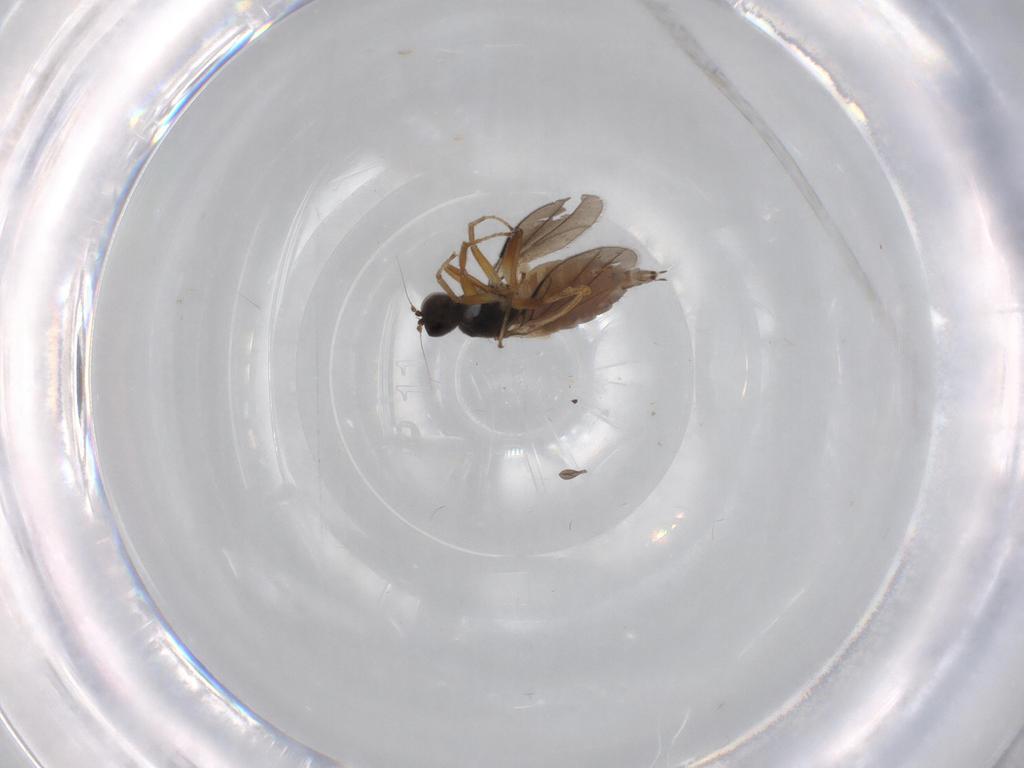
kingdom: Animalia
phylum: Arthropoda
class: Insecta
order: Diptera
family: Hybotidae
